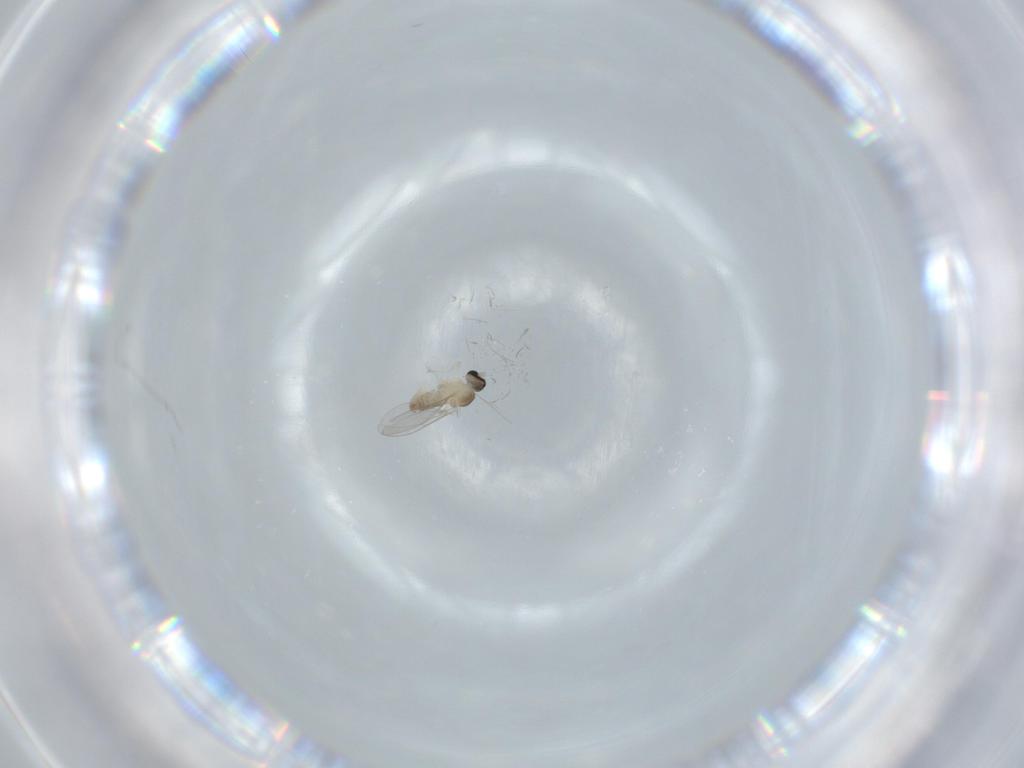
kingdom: Animalia
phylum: Arthropoda
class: Insecta
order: Diptera
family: Cecidomyiidae
